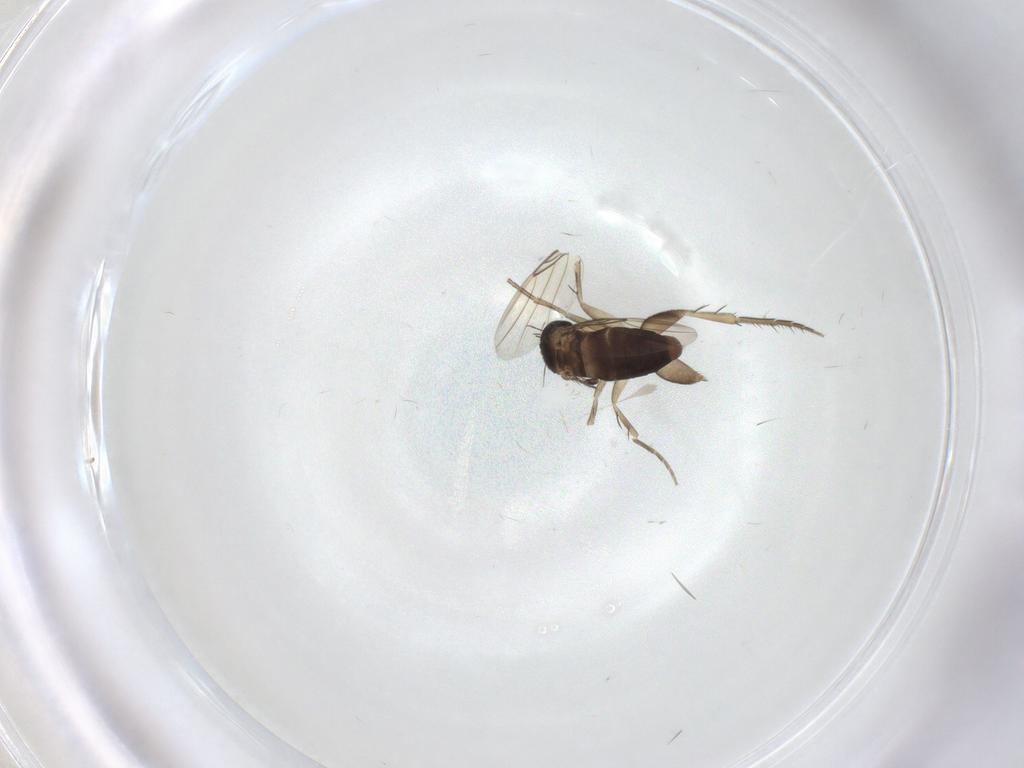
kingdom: Animalia
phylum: Arthropoda
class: Insecta
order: Diptera
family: Phoridae
